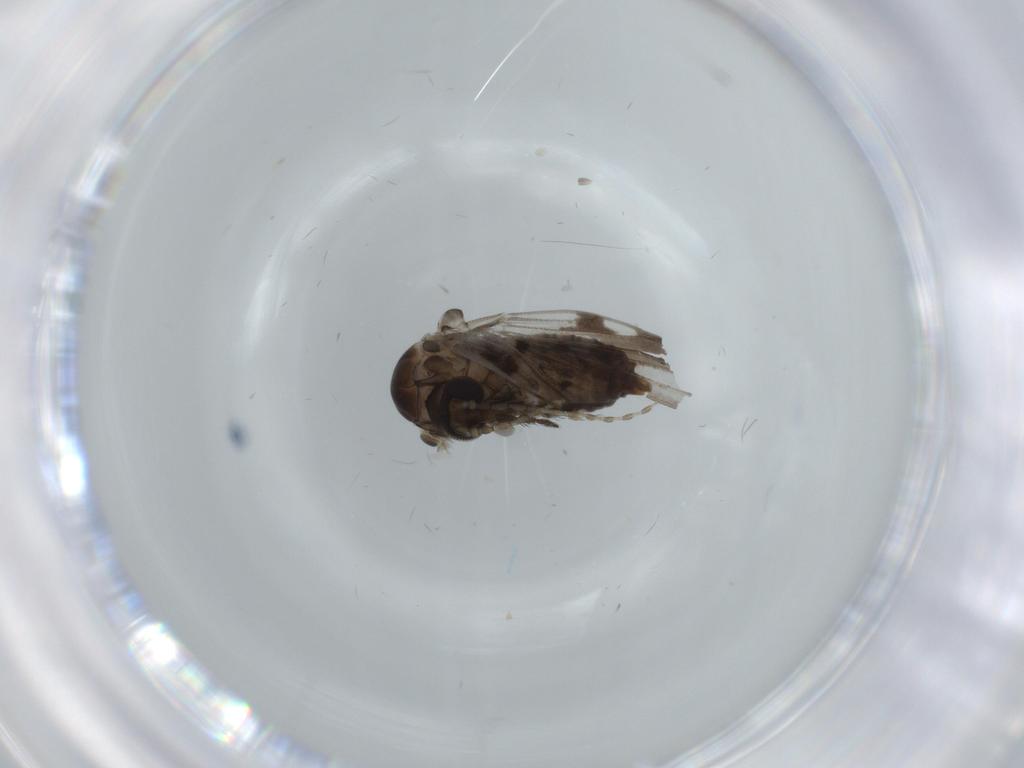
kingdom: Animalia
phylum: Arthropoda
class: Insecta
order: Diptera
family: Psychodidae
